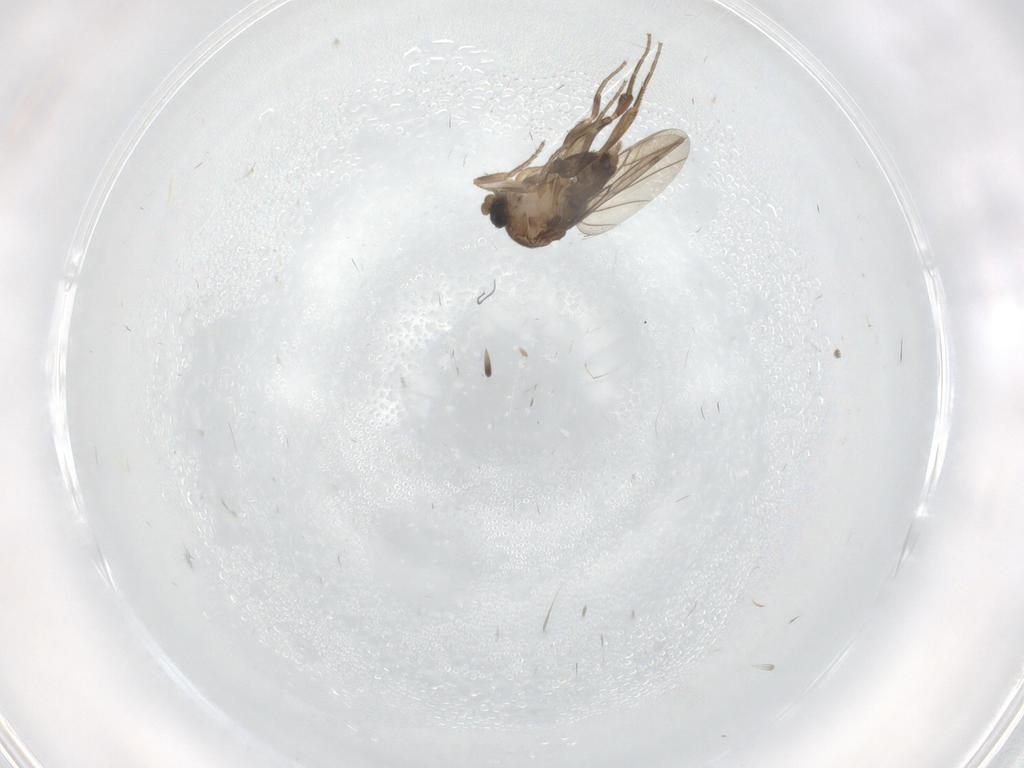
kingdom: Animalia
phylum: Arthropoda
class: Insecta
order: Diptera
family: Phoridae
